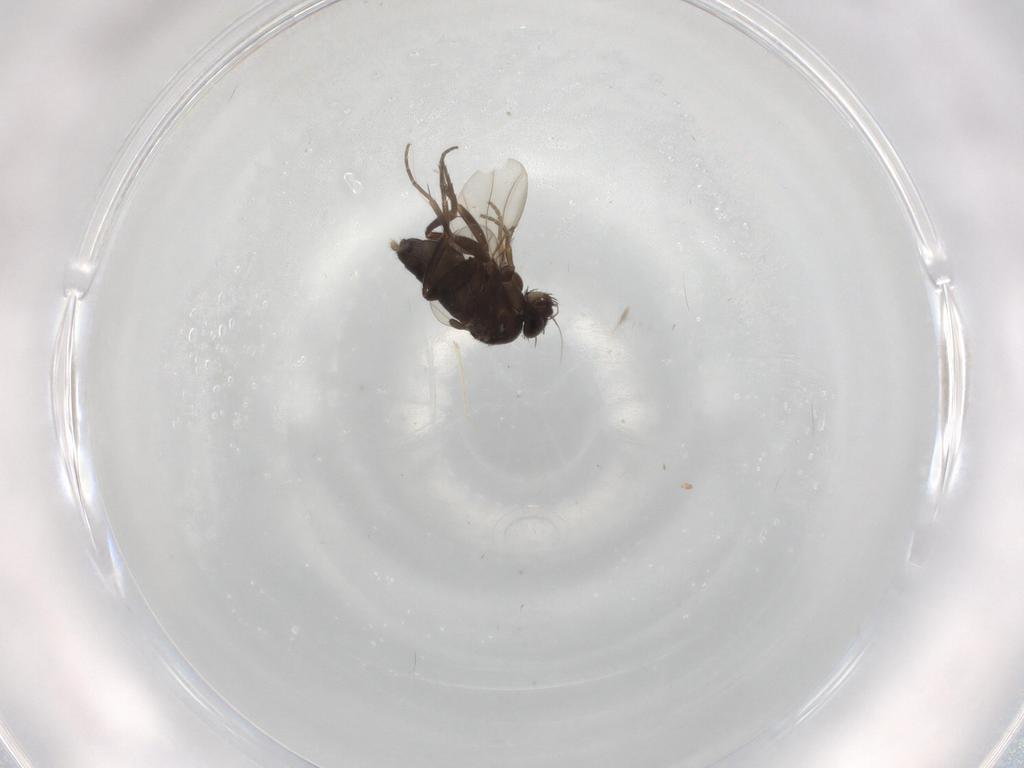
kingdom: Animalia
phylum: Arthropoda
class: Insecta
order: Diptera
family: Phoridae
